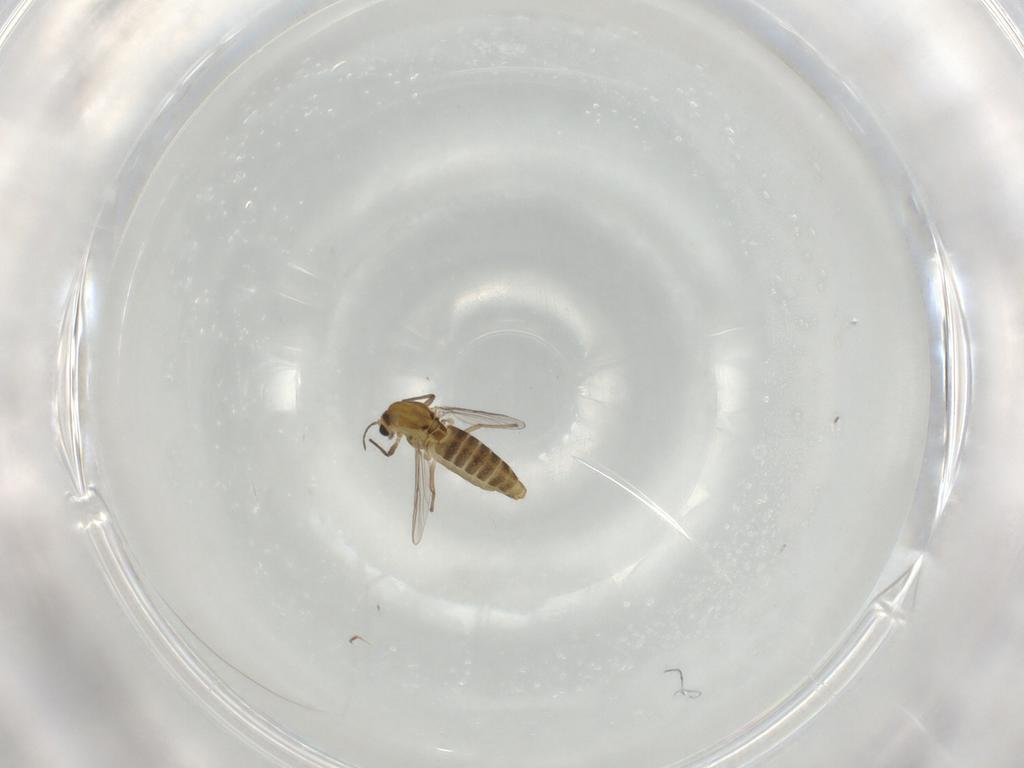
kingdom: Animalia
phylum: Arthropoda
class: Insecta
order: Diptera
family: Chironomidae
